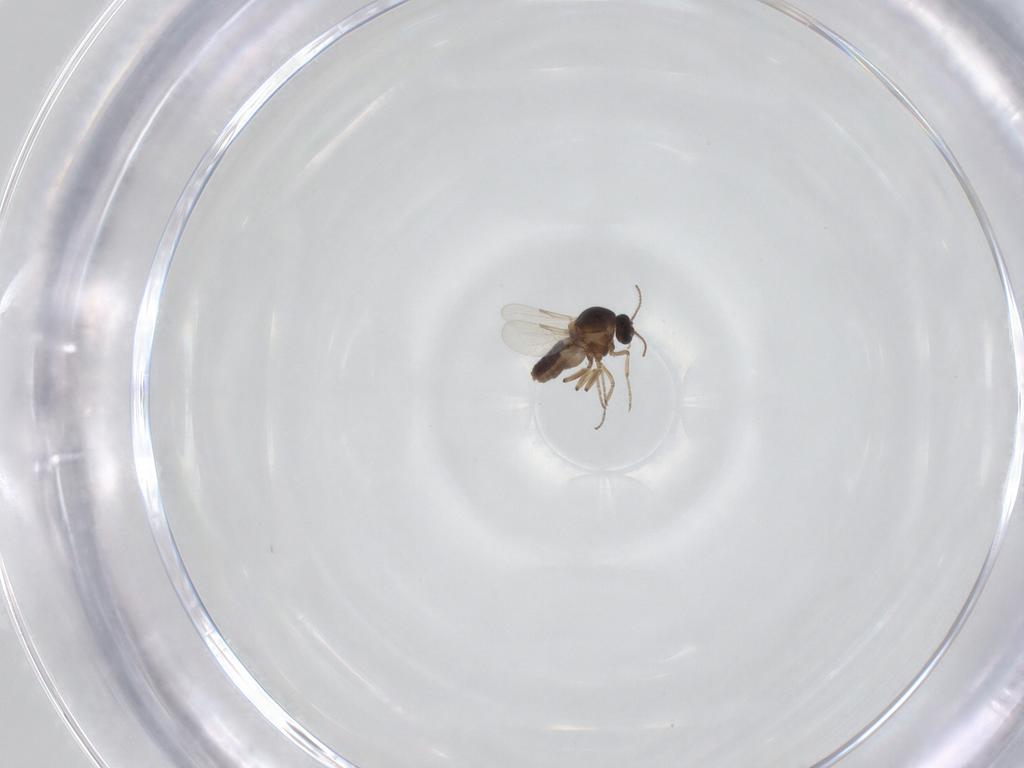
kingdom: Animalia
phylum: Arthropoda
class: Insecta
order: Diptera
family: Ceratopogonidae
